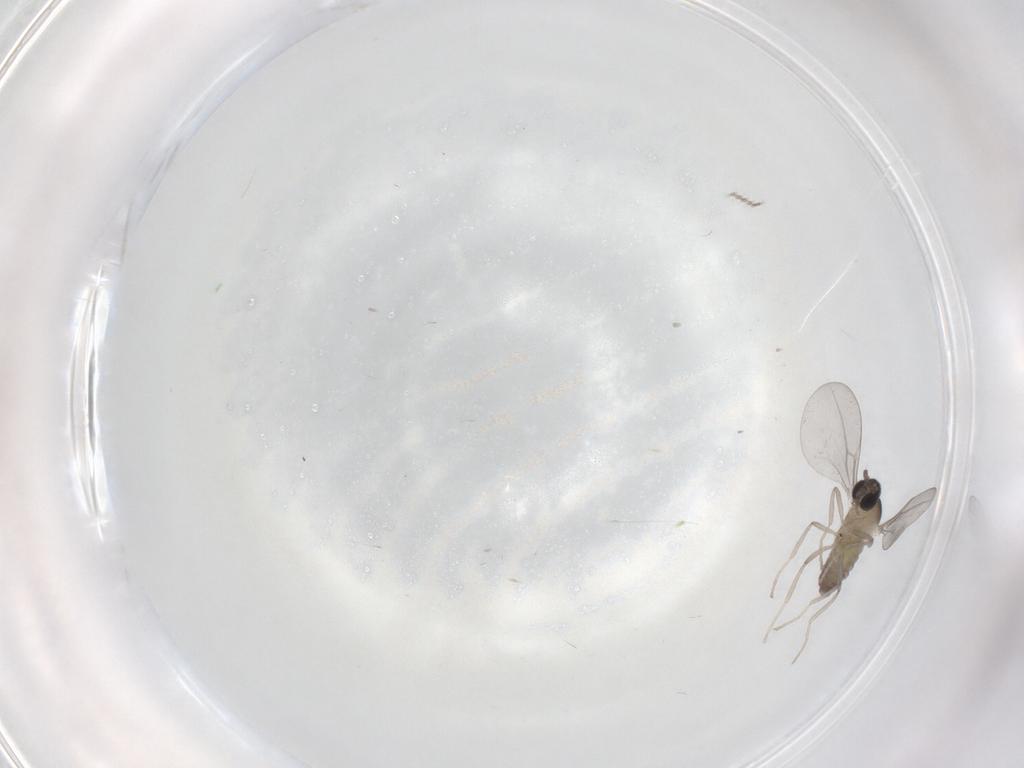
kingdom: Animalia
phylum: Arthropoda
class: Insecta
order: Diptera
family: Cecidomyiidae
